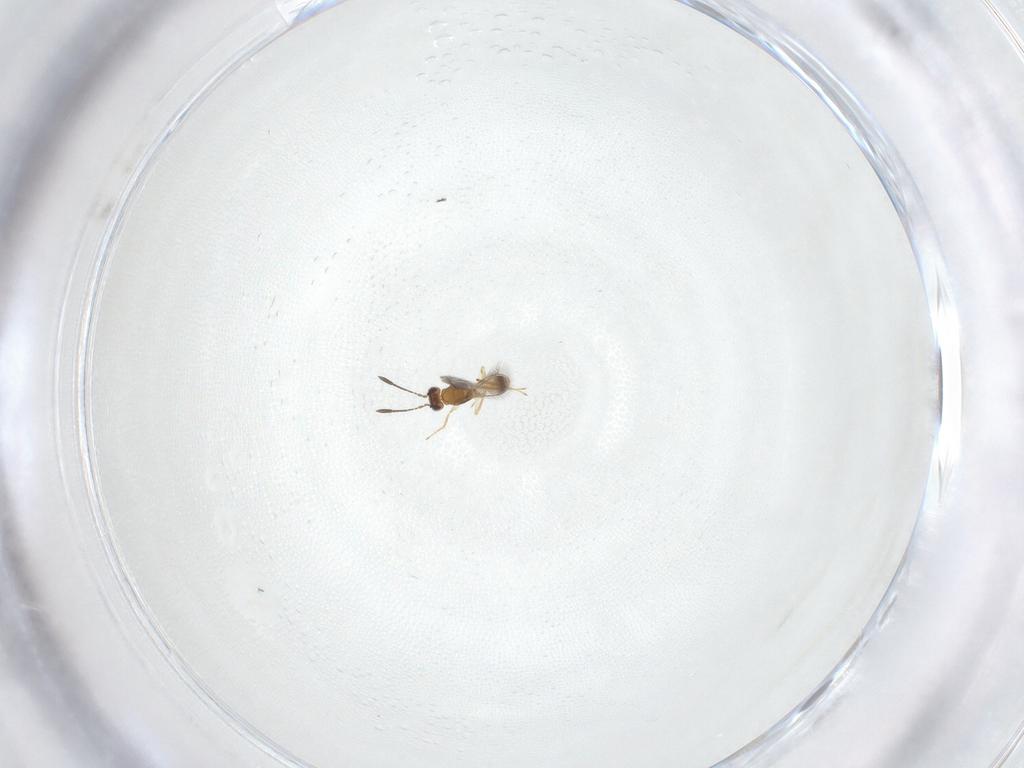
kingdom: Animalia
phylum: Arthropoda
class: Insecta
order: Hymenoptera
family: Mymaridae
